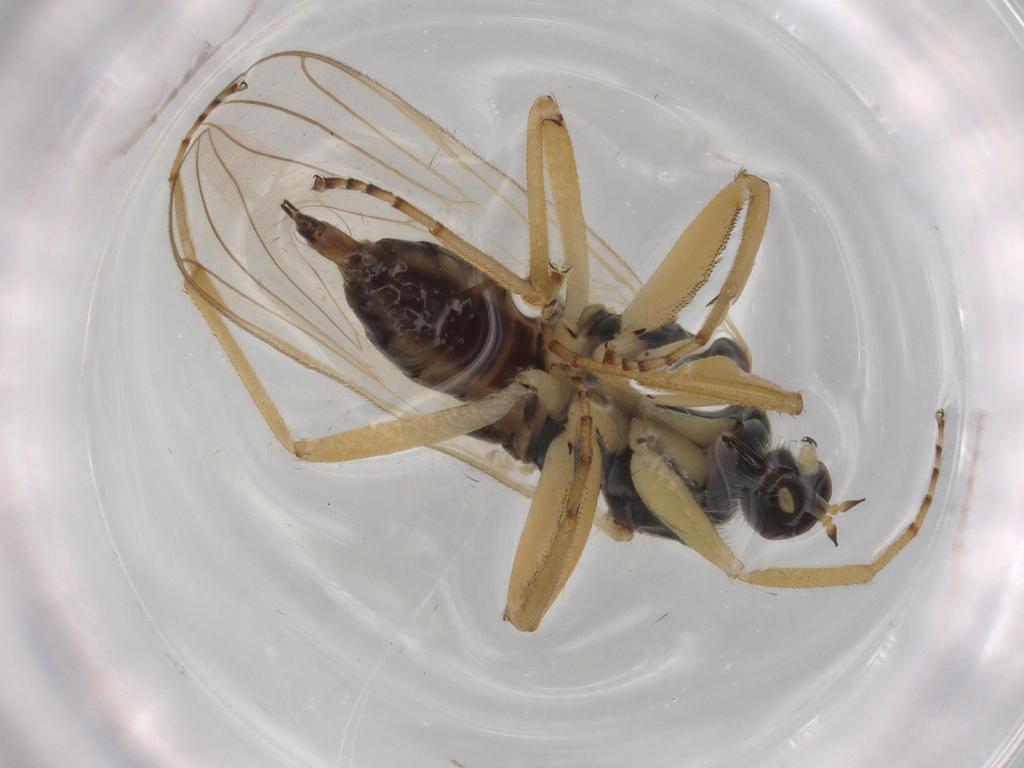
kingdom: Animalia
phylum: Arthropoda
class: Insecta
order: Diptera
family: Hybotidae
